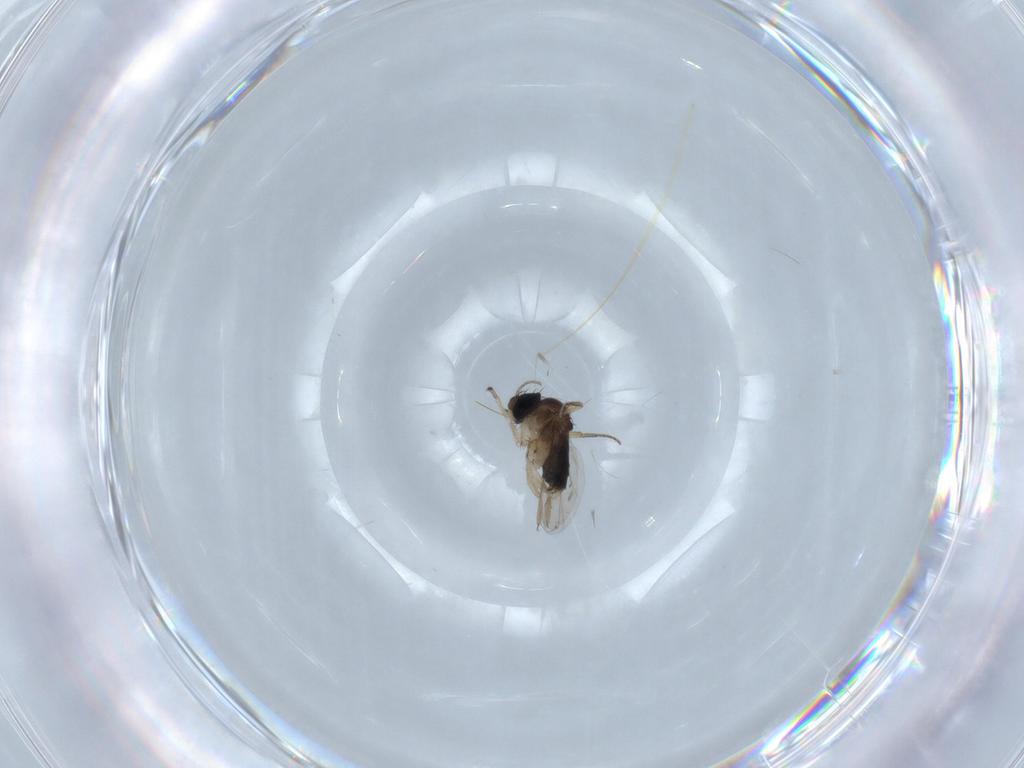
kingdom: Animalia
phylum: Arthropoda
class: Insecta
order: Diptera
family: Phoridae
